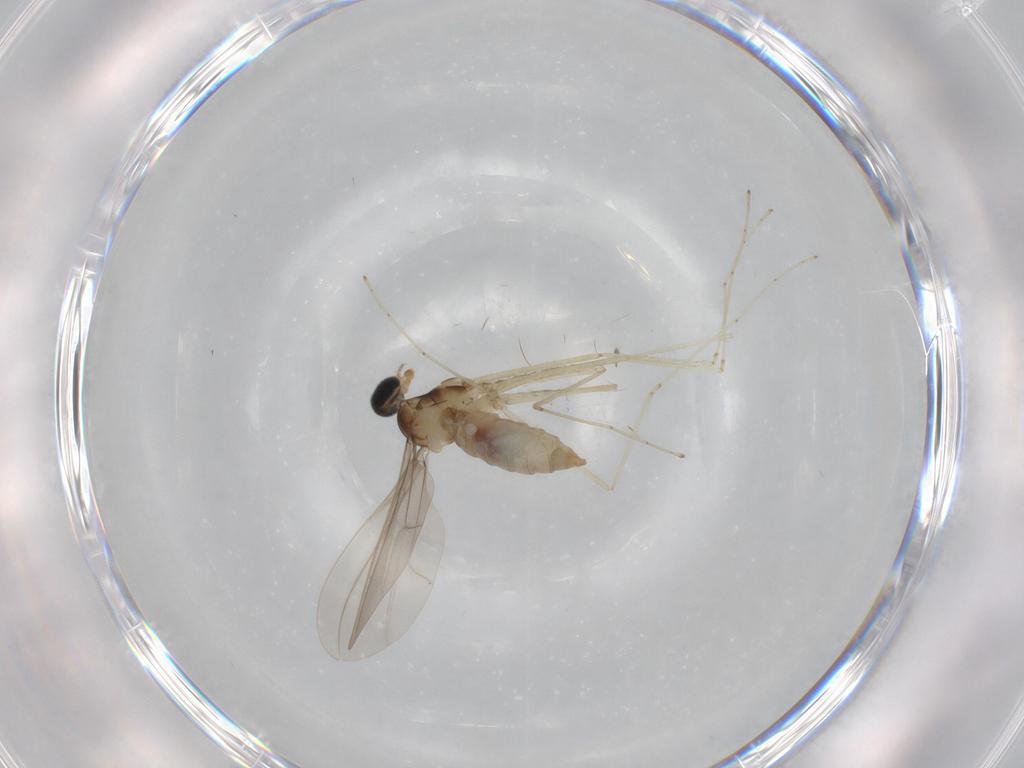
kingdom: Animalia
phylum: Arthropoda
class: Insecta
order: Diptera
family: Cecidomyiidae
